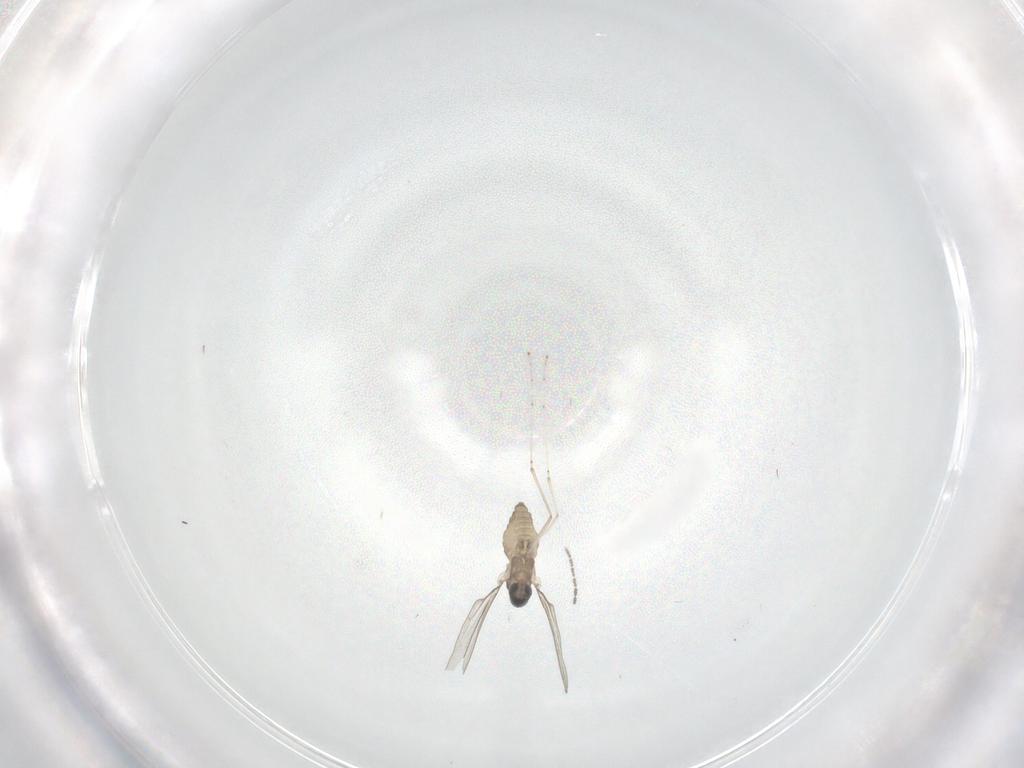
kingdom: Animalia
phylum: Arthropoda
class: Insecta
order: Diptera
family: Cecidomyiidae
